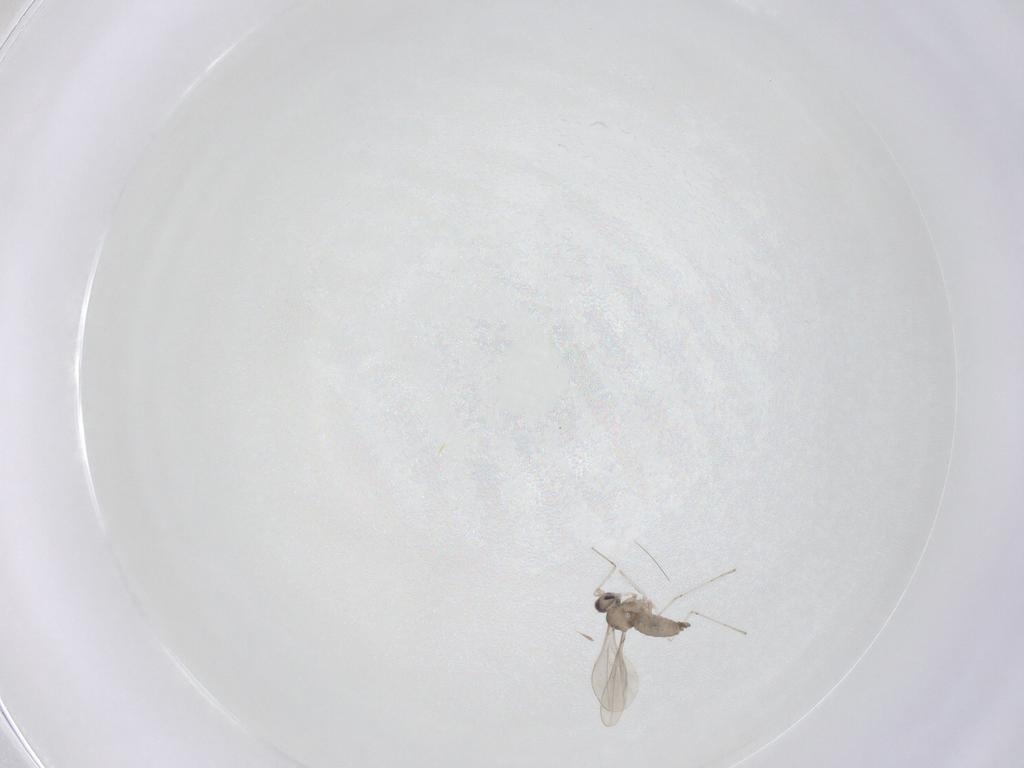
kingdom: Animalia
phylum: Arthropoda
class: Insecta
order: Diptera
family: Cecidomyiidae
